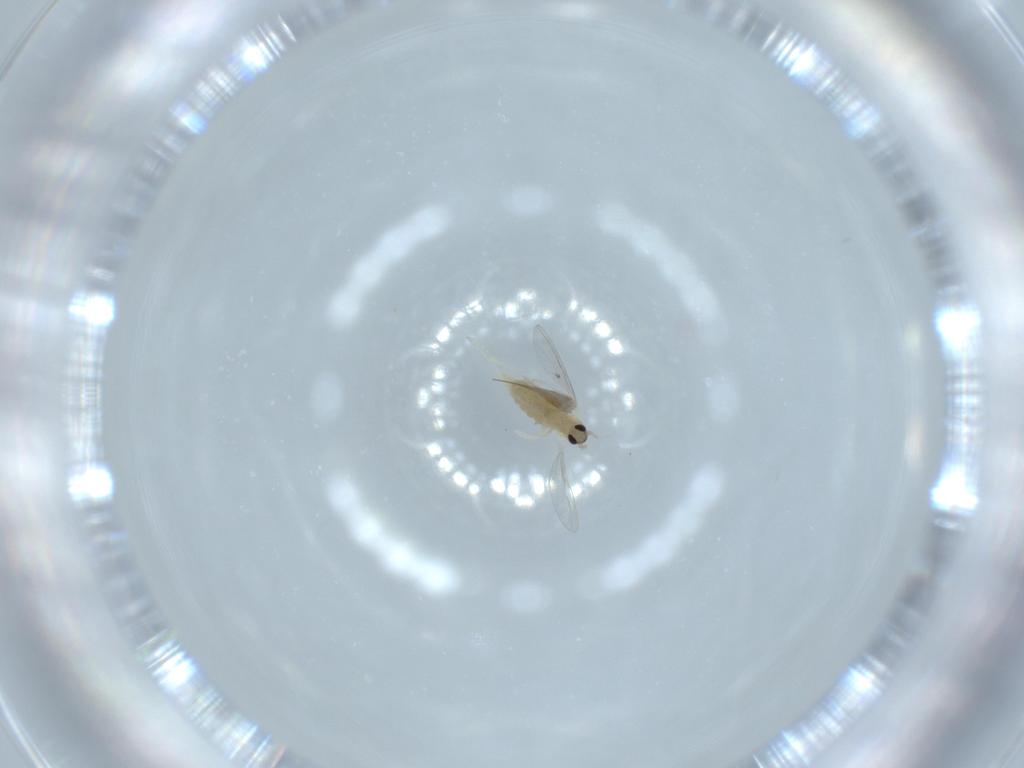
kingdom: Animalia
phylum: Arthropoda
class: Insecta
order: Diptera
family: Cecidomyiidae
